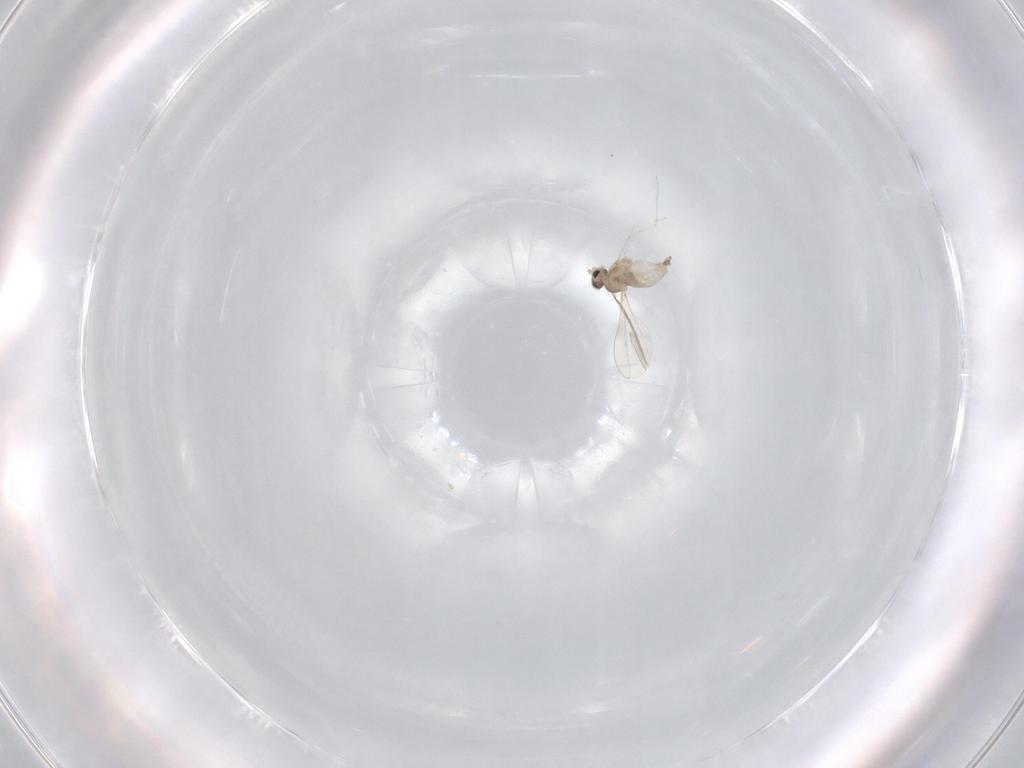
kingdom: Animalia
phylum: Arthropoda
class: Insecta
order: Diptera
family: Cecidomyiidae
